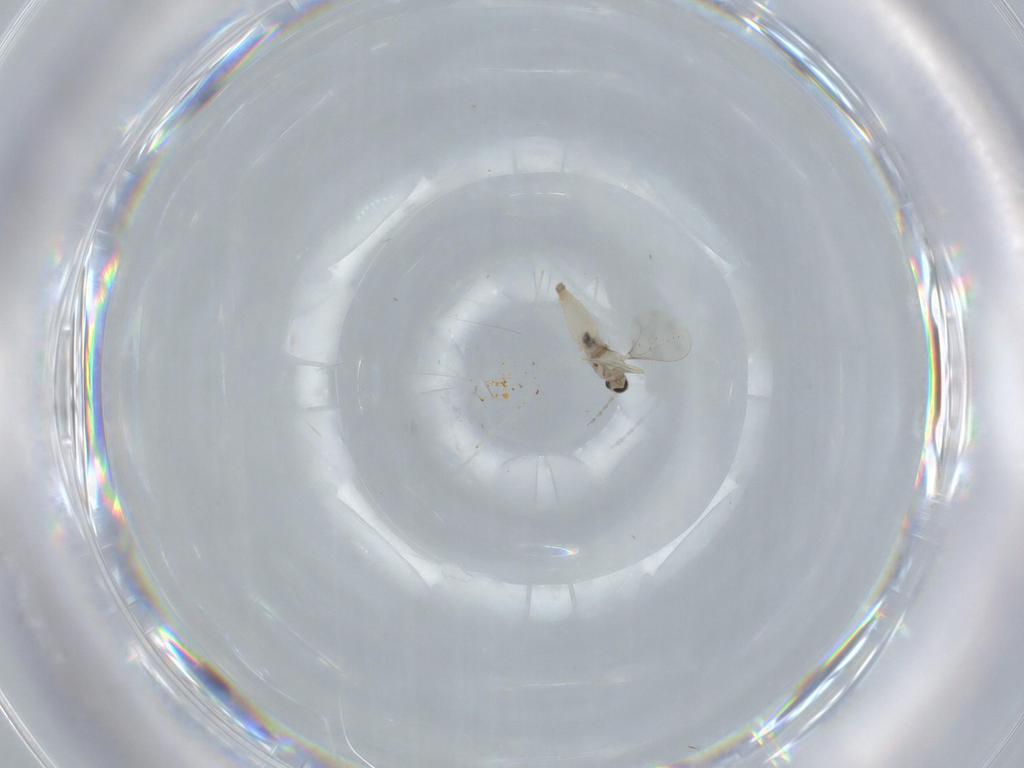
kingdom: Animalia
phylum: Arthropoda
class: Insecta
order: Diptera
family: Cecidomyiidae
